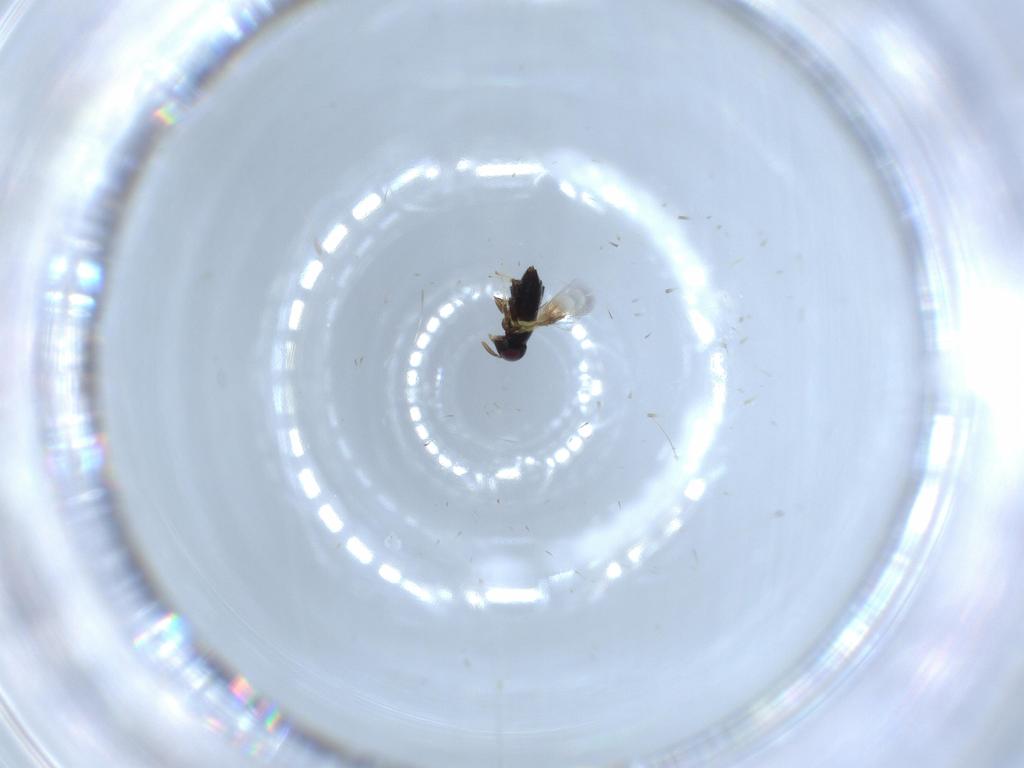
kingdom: Animalia
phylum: Arthropoda
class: Insecta
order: Hymenoptera
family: Signiphoridae
